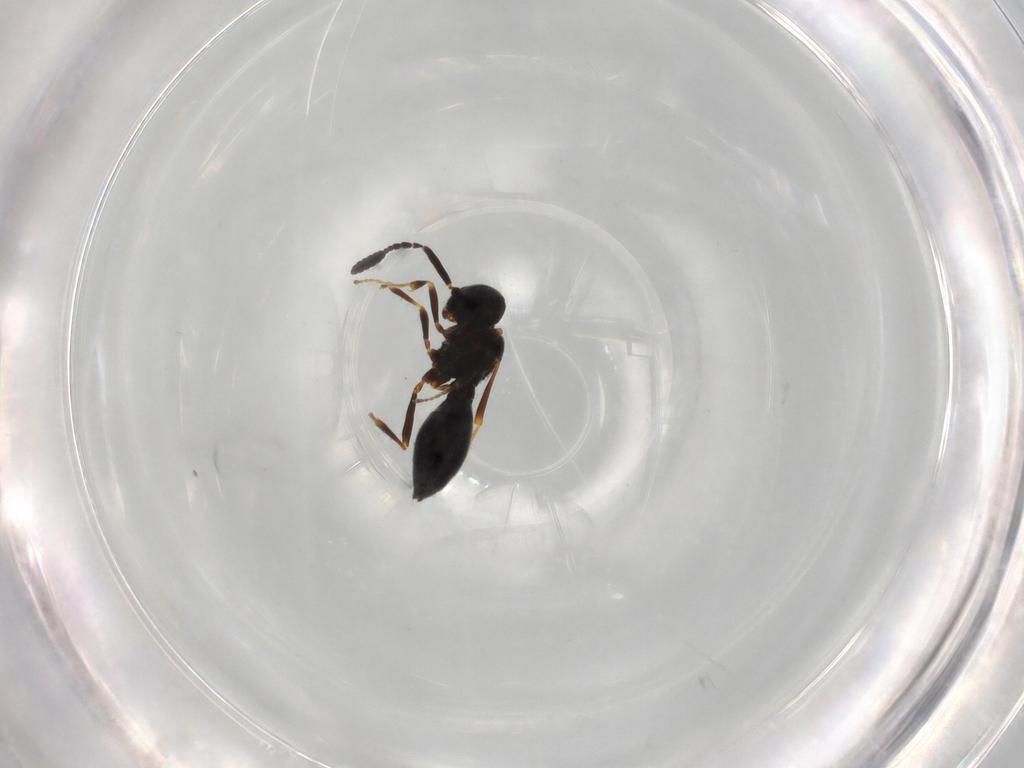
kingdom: Animalia
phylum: Arthropoda
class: Insecta
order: Hymenoptera
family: Scelionidae
